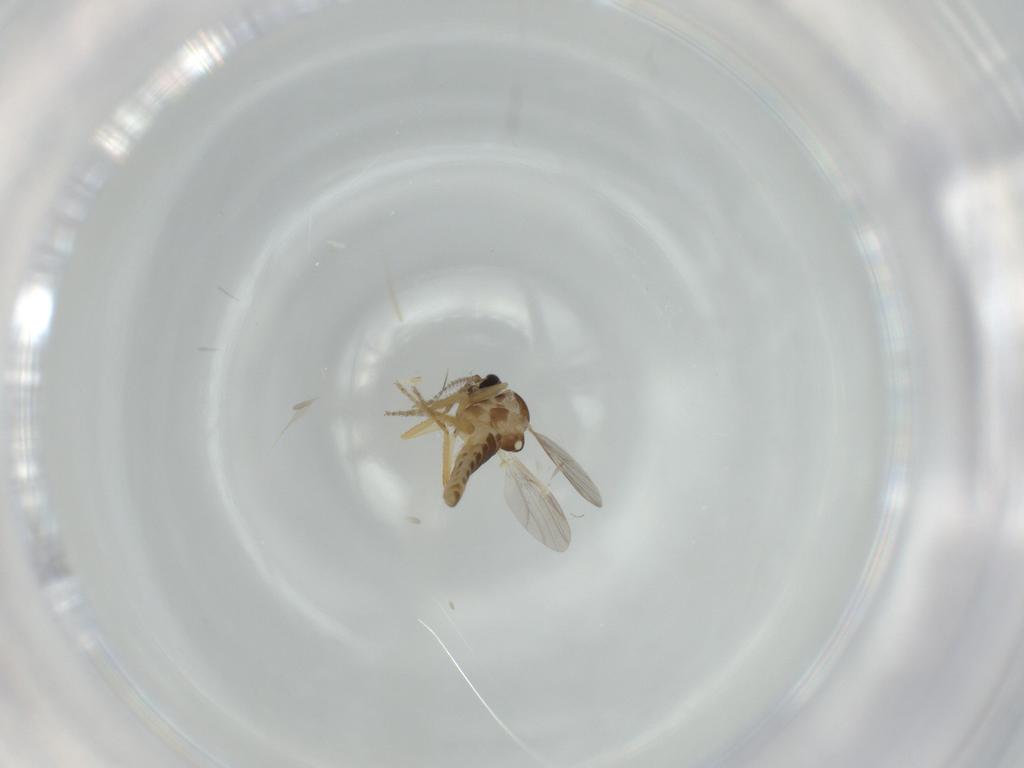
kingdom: Animalia
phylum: Arthropoda
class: Insecta
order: Diptera
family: Ceratopogonidae
